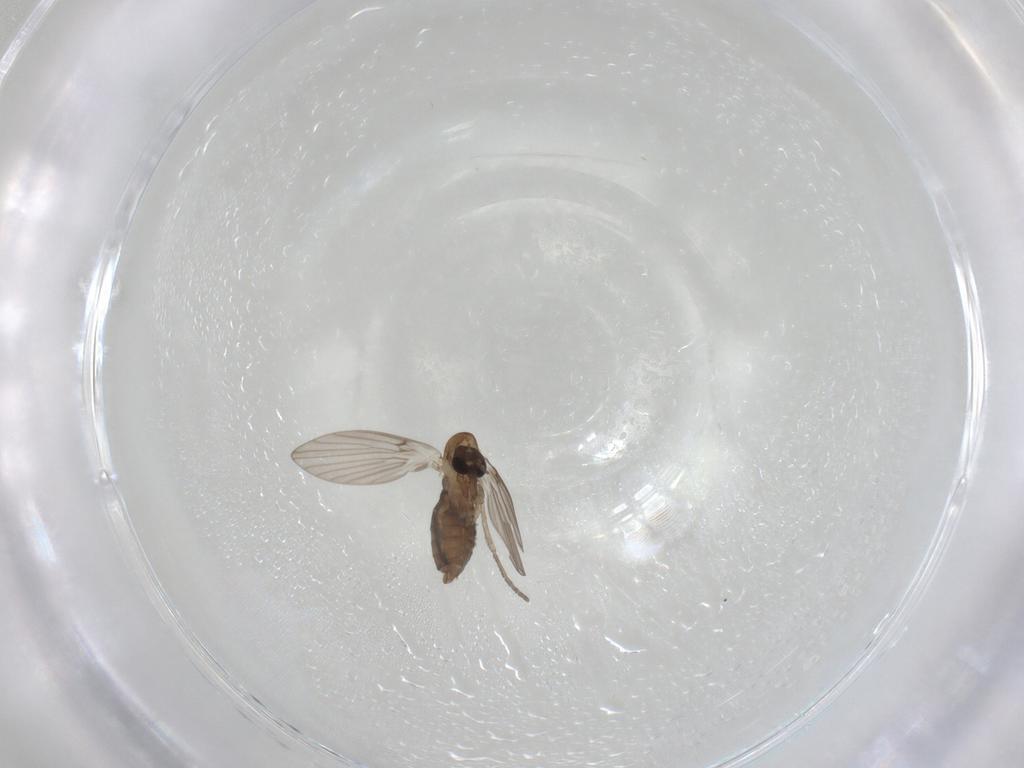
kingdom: Animalia
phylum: Arthropoda
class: Insecta
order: Diptera
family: Psychodidae
